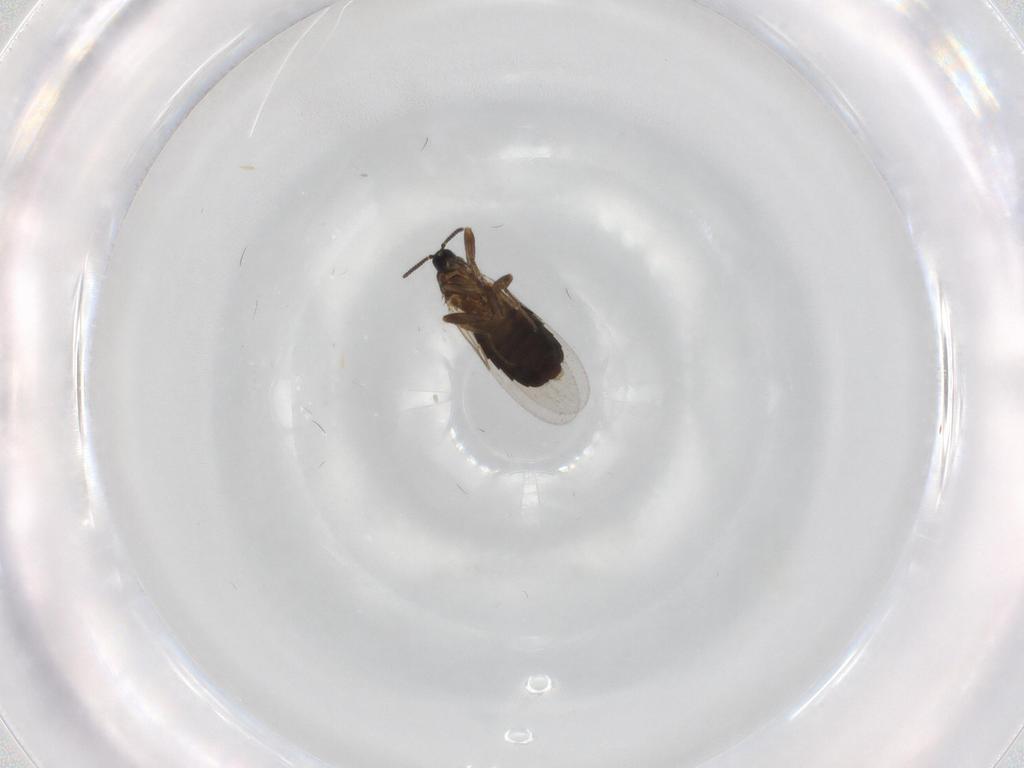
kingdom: Animalia
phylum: Arthropoda
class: Insecta
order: Diptera
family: Scatopsidae
